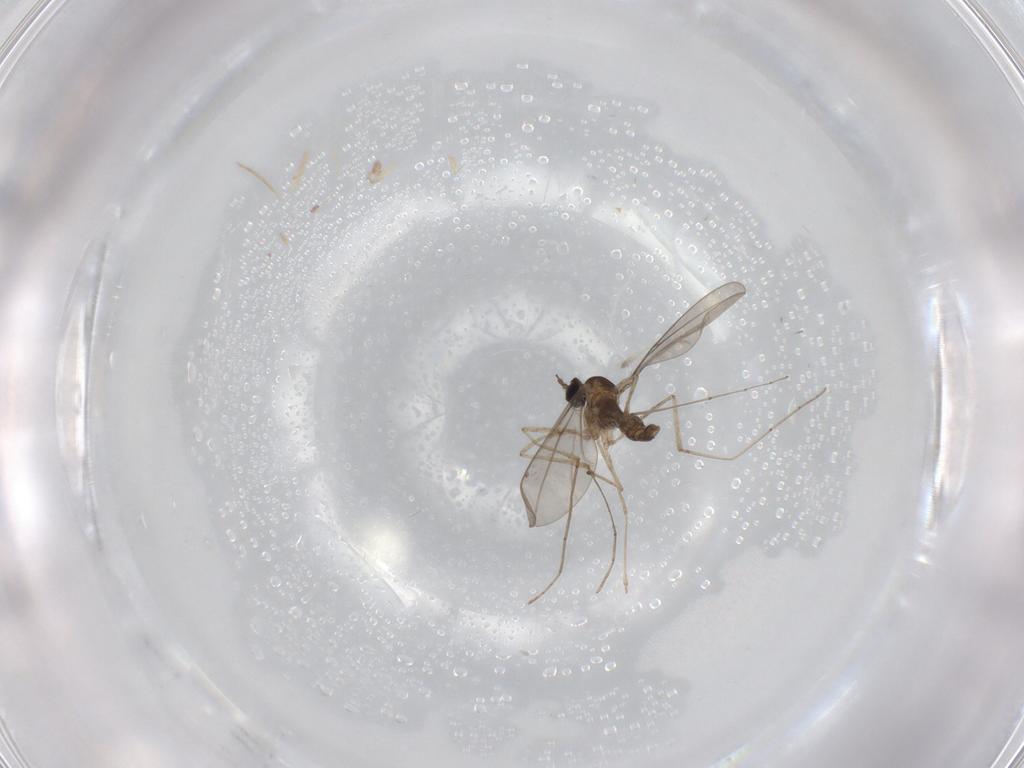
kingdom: Animalia
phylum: Arthropoda
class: Insecta
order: Diptera
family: Cecidomyiidae
